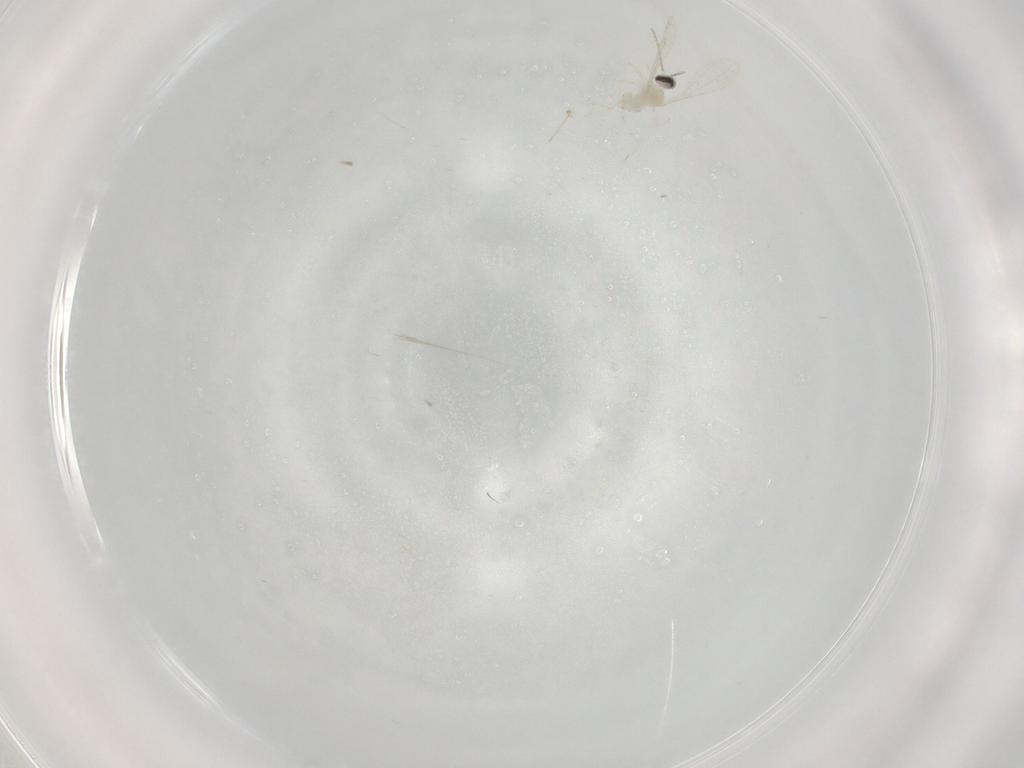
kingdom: Animalia
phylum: Arthropoda
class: Insecta
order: Diptera
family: Cecidomyiidae
